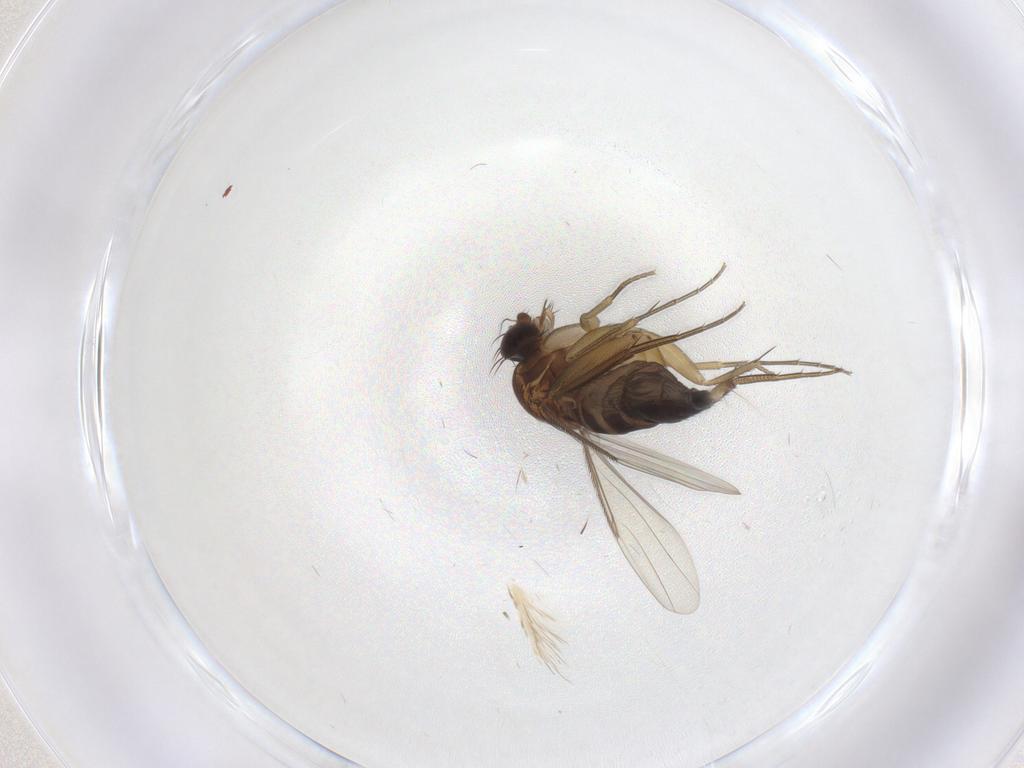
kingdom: Animalia
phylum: Arthropoda
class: Insecta
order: Diptera
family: Phoridae
